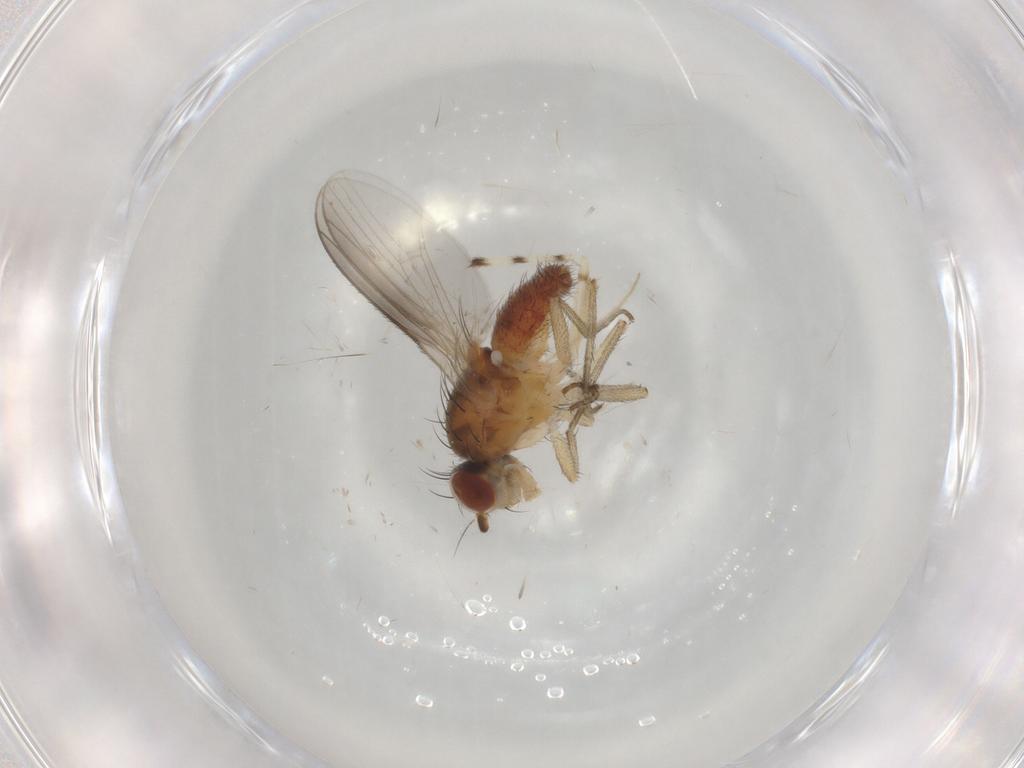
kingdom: Animalia
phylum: Arthropoda
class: Insecta
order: Diptera
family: Heleomyzidae
